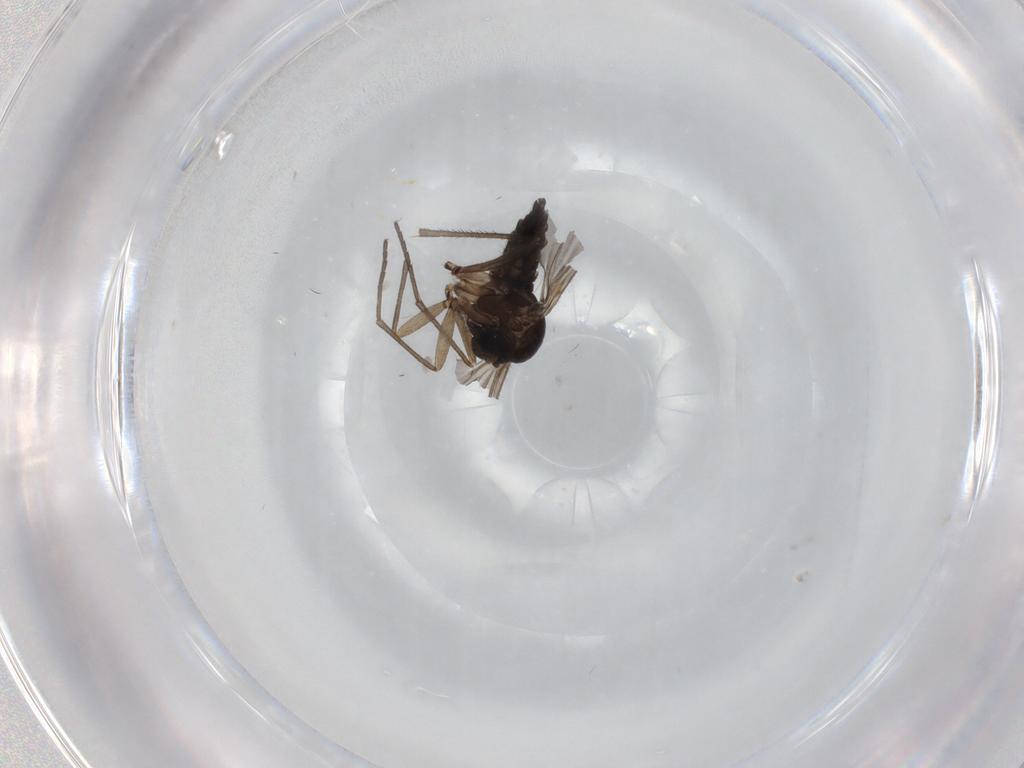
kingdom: Animalia
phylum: Arthropoda
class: Insecta
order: Diptera
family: Sciaridae
